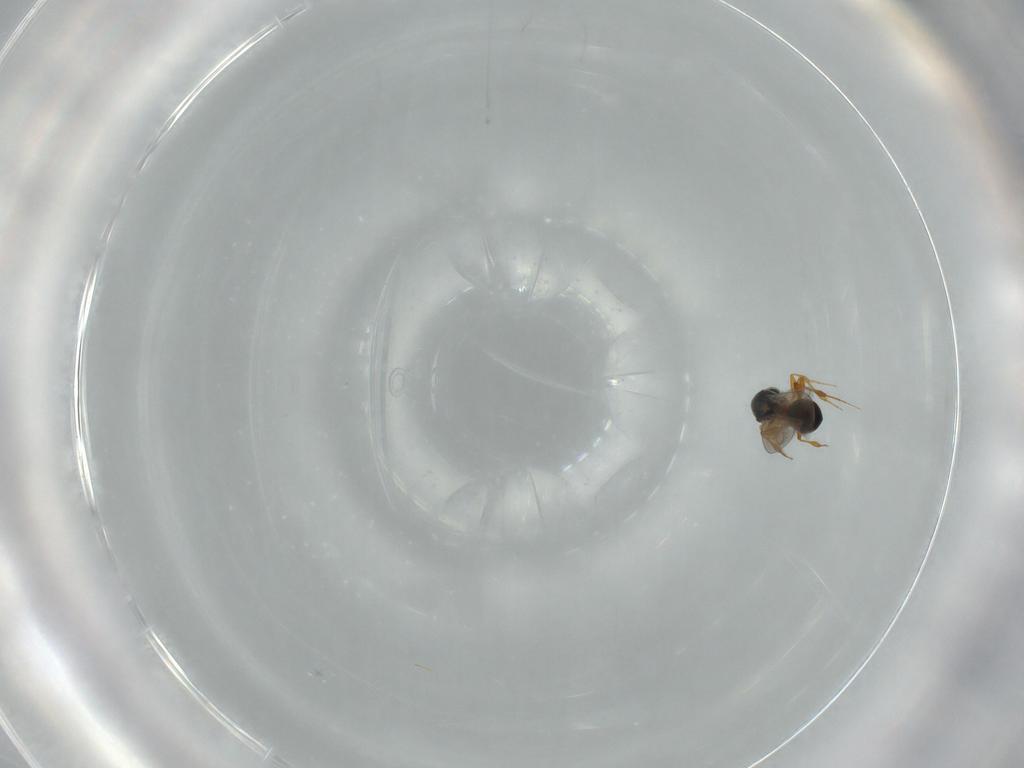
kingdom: Animalia
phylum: Arthropoda
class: Insecta
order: Hymenoptera
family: Platygastridae
